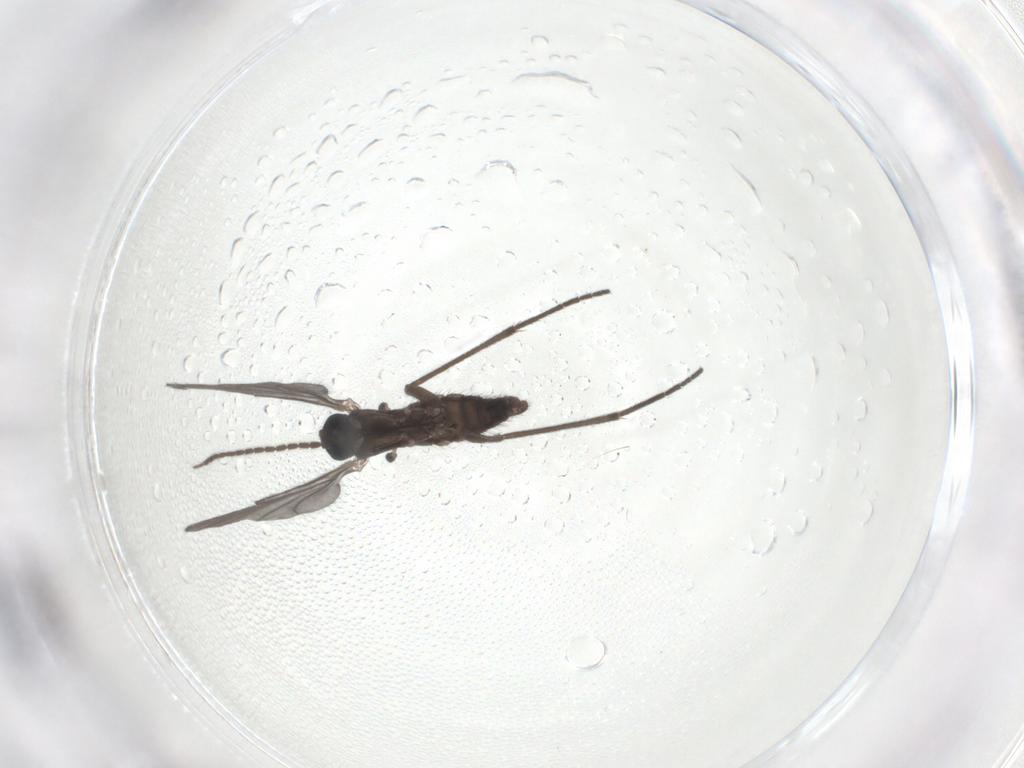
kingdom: Animalia
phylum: Arthropoda
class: Insecta
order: Diptera
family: Sciaridae
